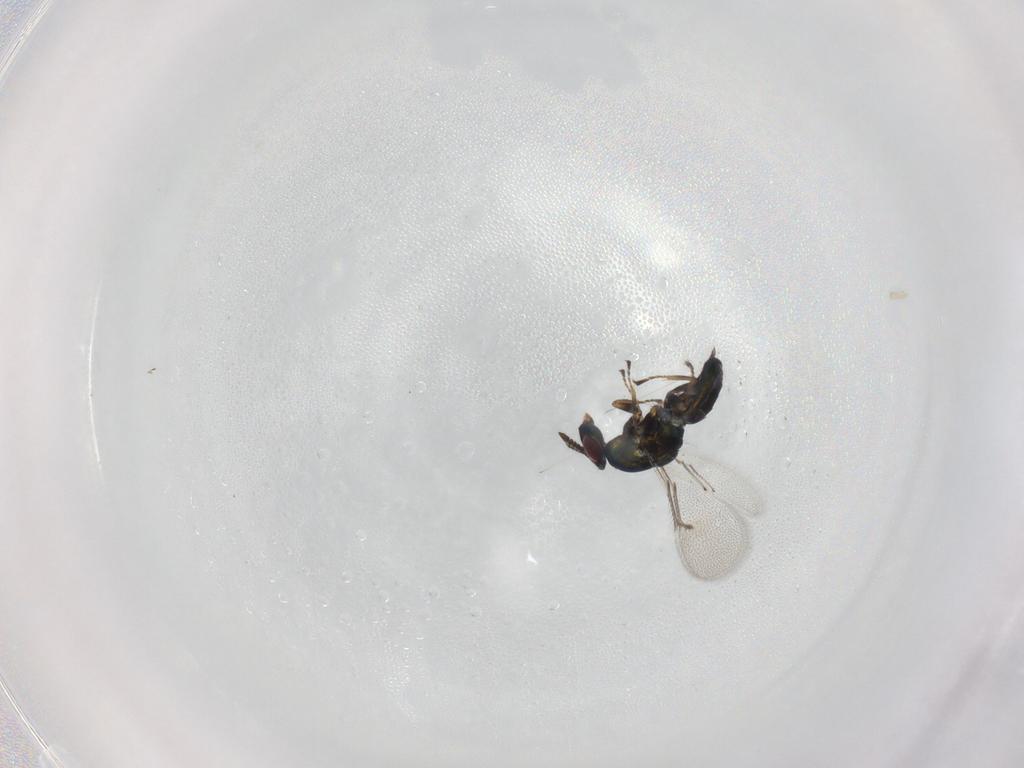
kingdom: Animalia
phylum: Arthropoda
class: Insecta
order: Hymenoptera
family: Eulophidae
